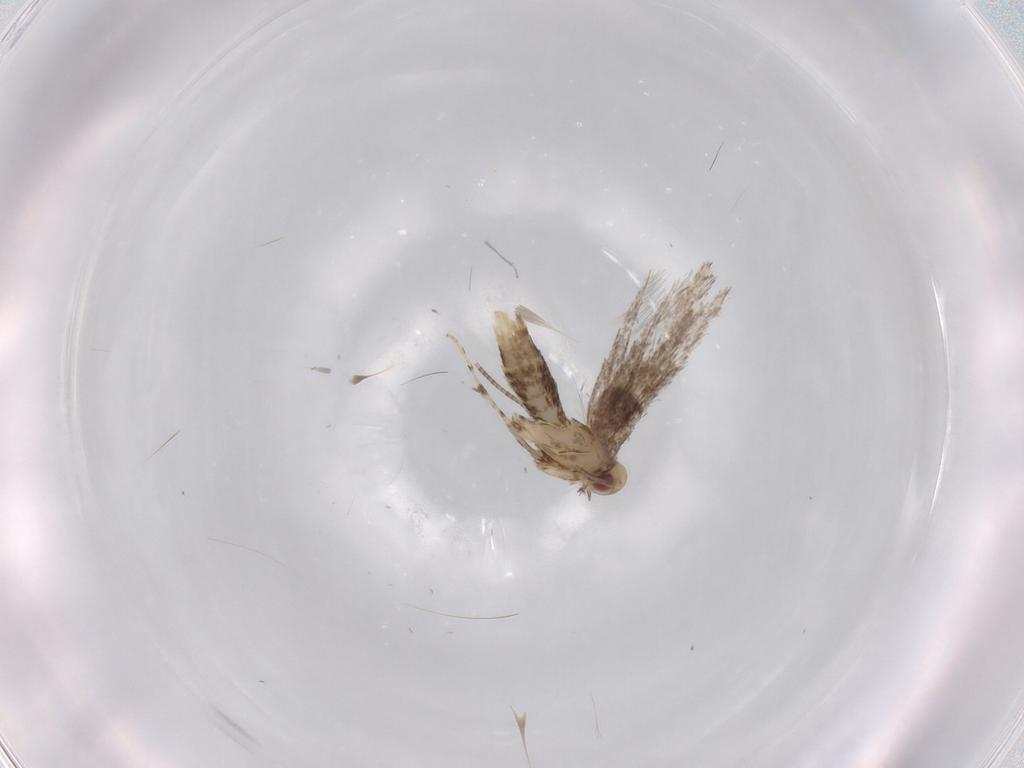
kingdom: Animalia
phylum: Arthropoda
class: Insecta
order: Lepidoptera
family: Gracillariidae
